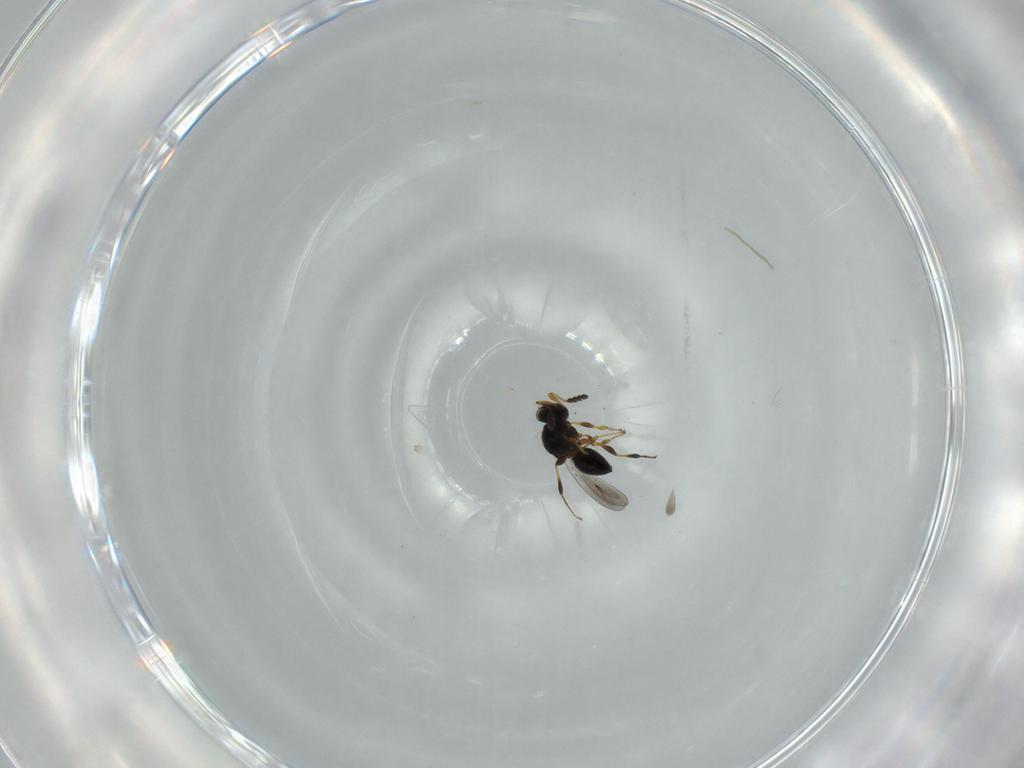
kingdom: Animalia
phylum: Arthropoda
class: Insecta
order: Hymenoptera
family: Platygastridae
